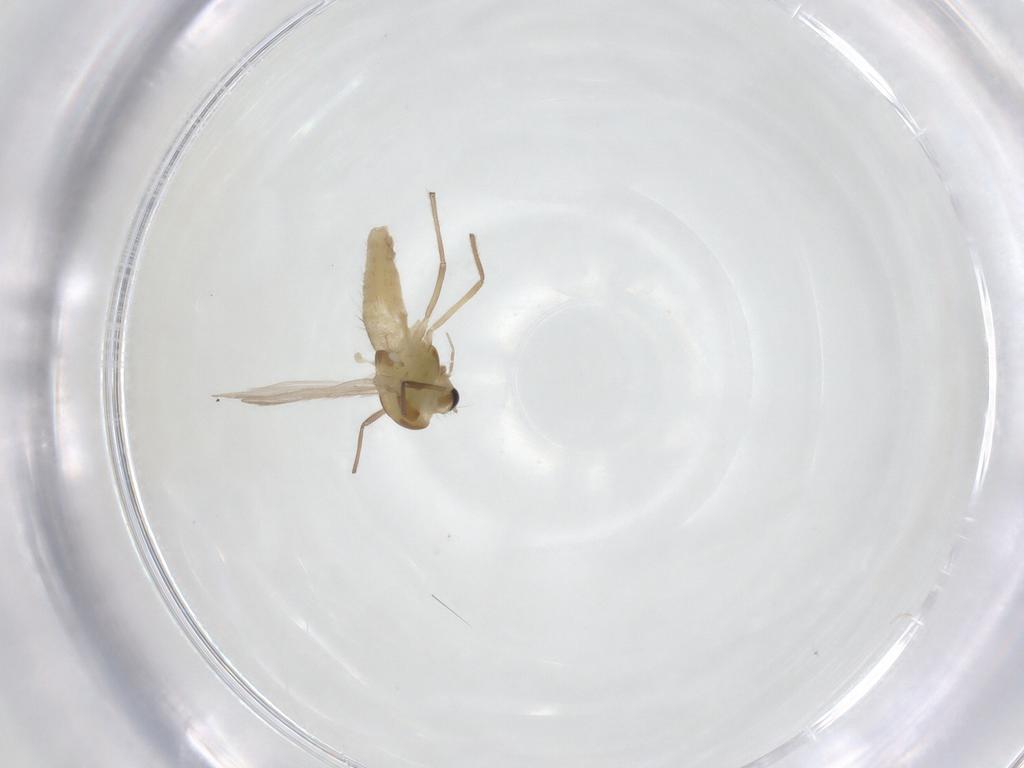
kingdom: Animalia
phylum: Arthropoda
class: Insecta
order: Diptera
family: Chironomidae
